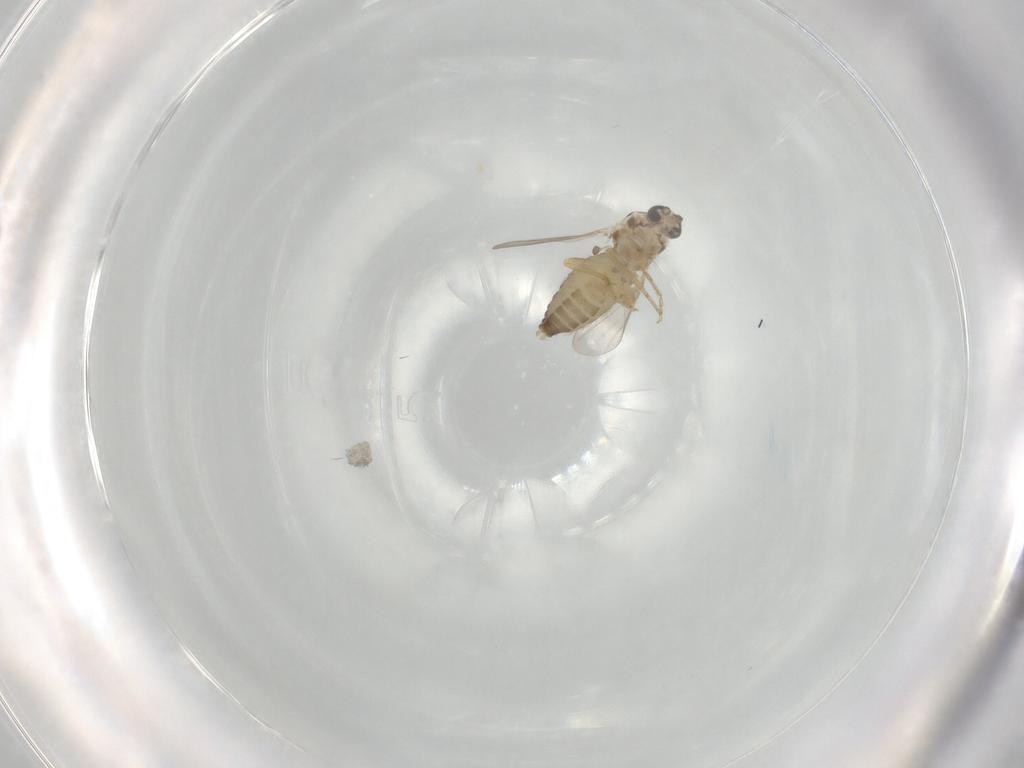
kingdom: Animalia
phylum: Arthropoda
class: Insecta
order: Diptera
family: Ceratopogonidae
